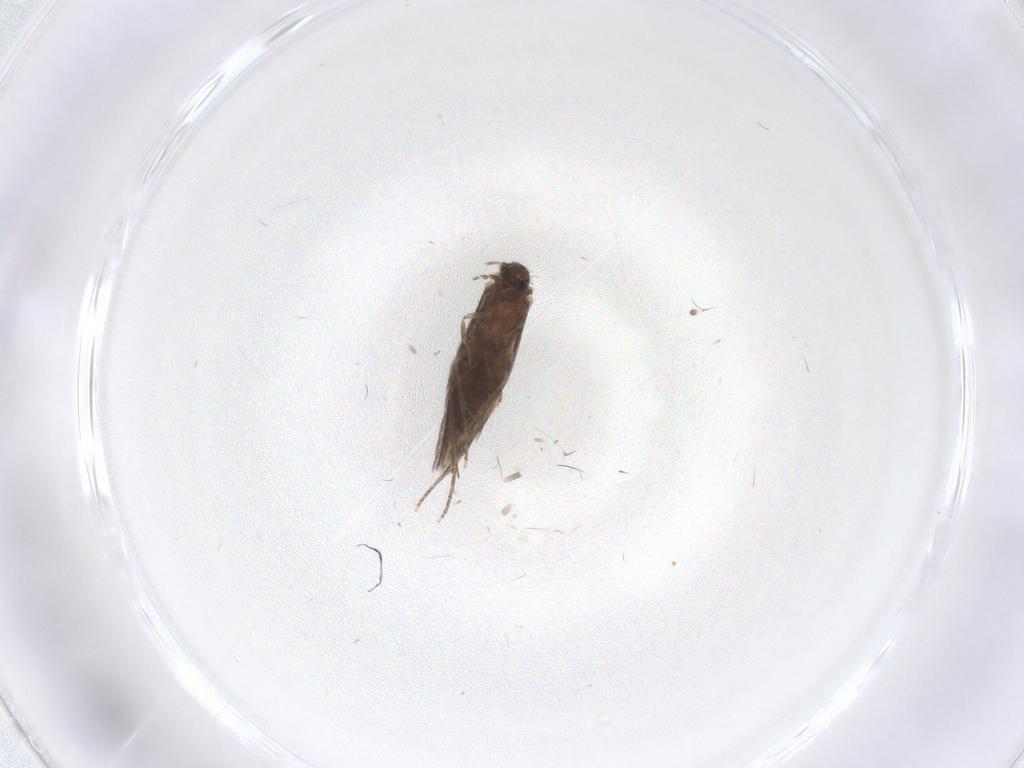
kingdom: Animalia
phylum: Arthropoda
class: Insecta
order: Trichoptera
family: Hydroptilidae
